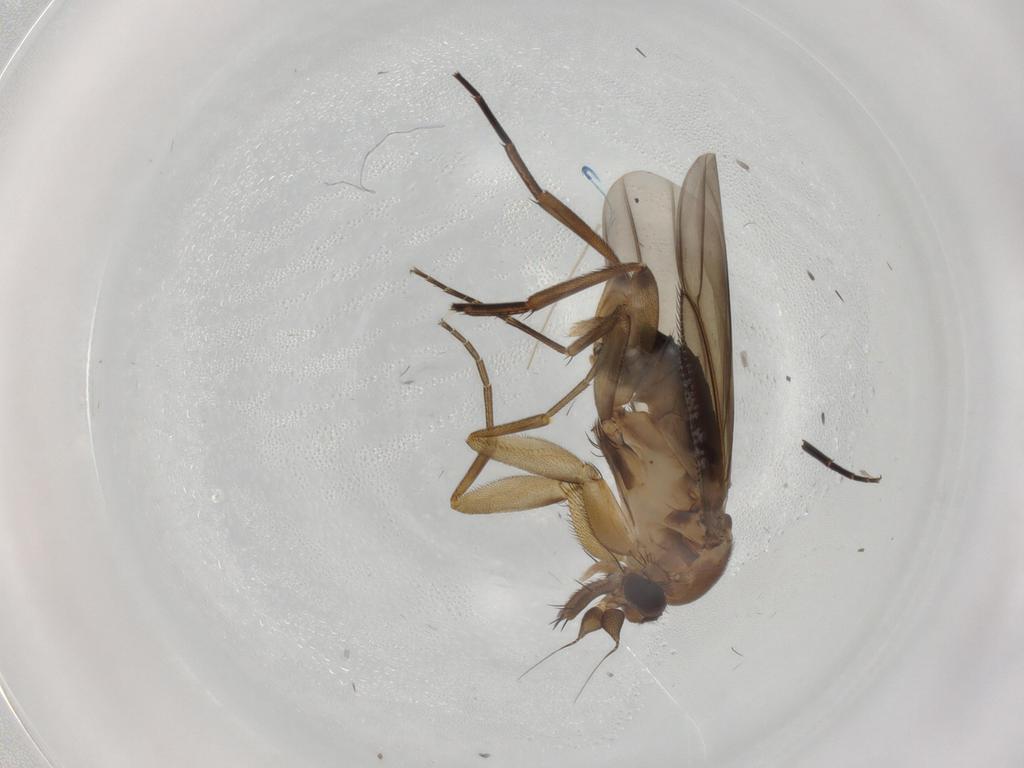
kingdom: Animalia
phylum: Arthropoda
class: Insecta
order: Diptera
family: Phoridae
